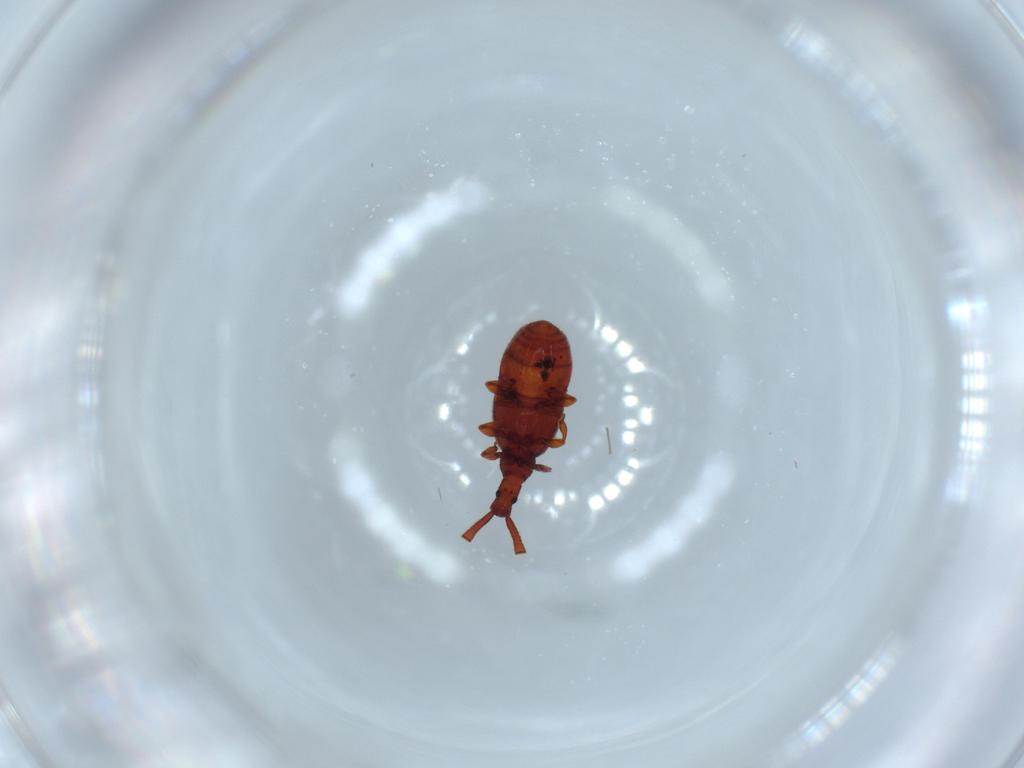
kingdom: Animalia
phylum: Arthropoda
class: Insecta
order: Coleoptera
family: Staphylinidae
